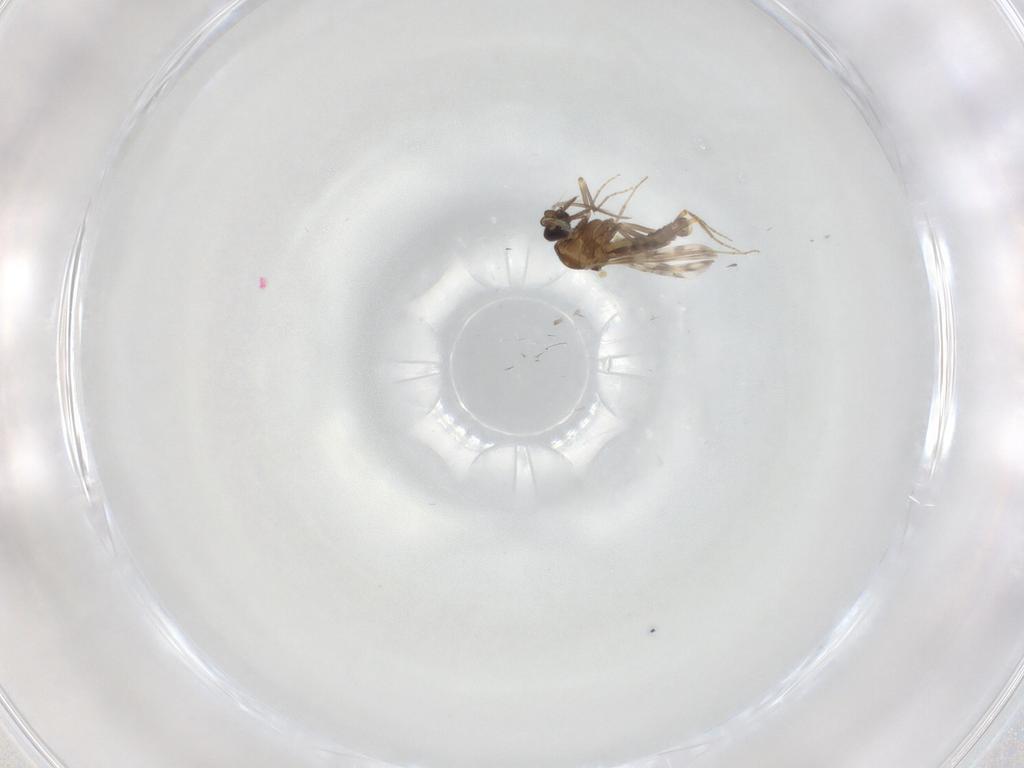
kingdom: Animalia
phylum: Arthropoda
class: Insecta
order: Diptera
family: Ceratopogonidae
